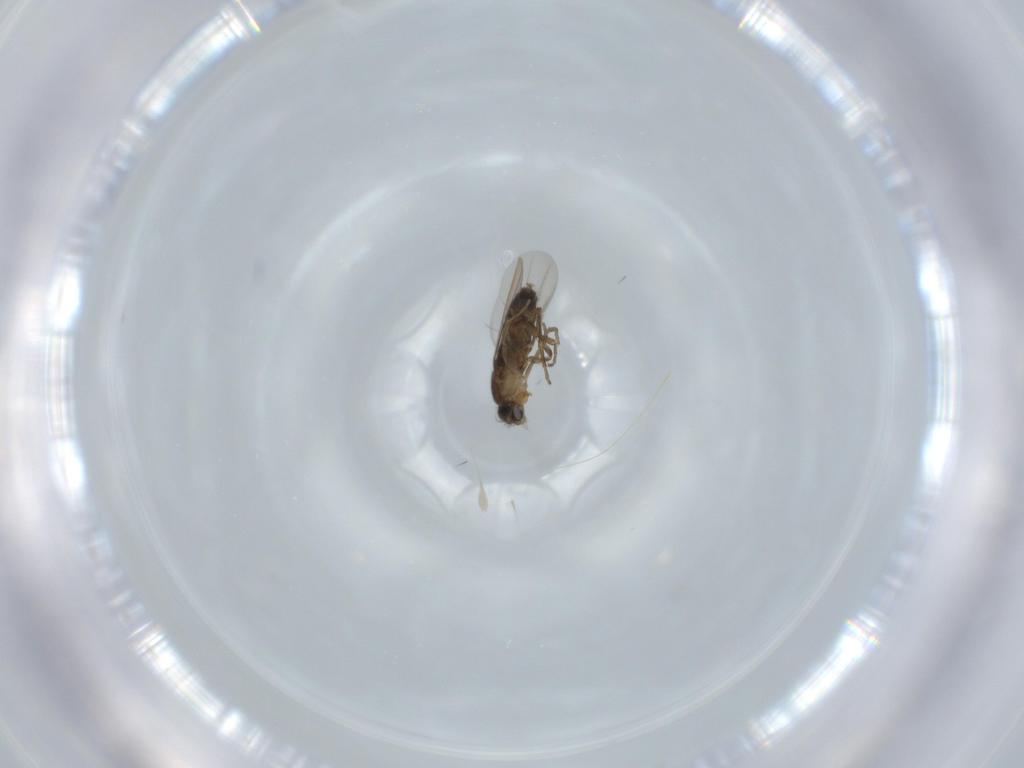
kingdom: Animalia
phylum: Arthropoda
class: Insecta
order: Diptera
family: Phoridae
